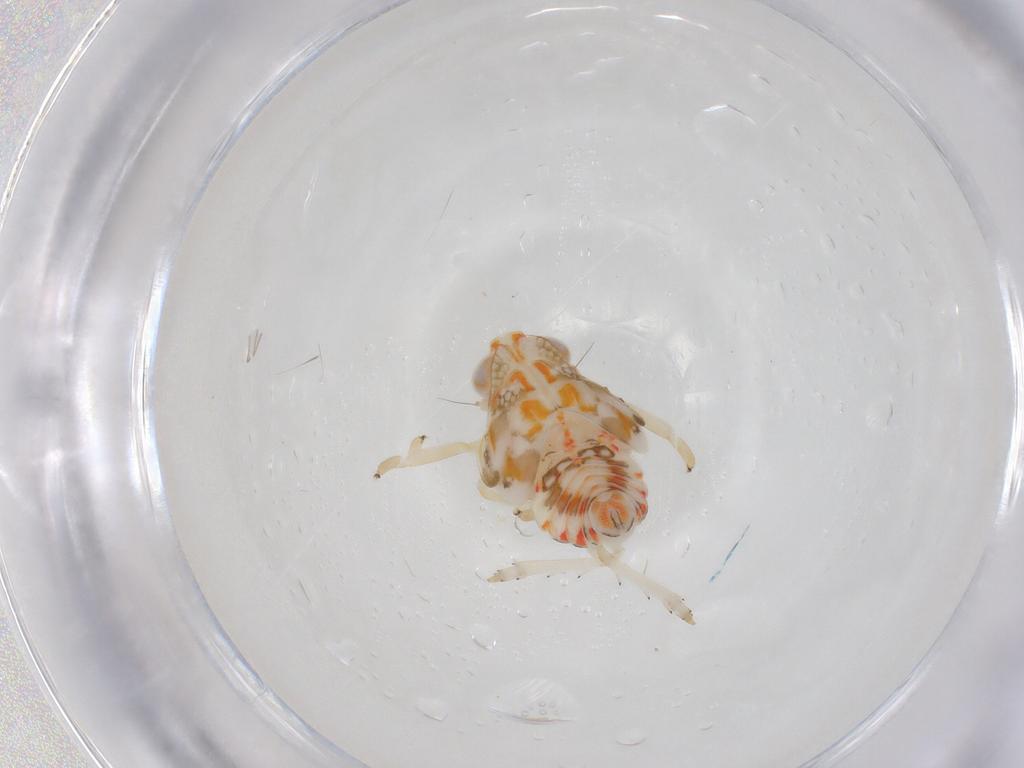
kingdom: Animalia
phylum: Arthropoda
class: Insecta
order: Hemiptera
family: Nogodinidae
